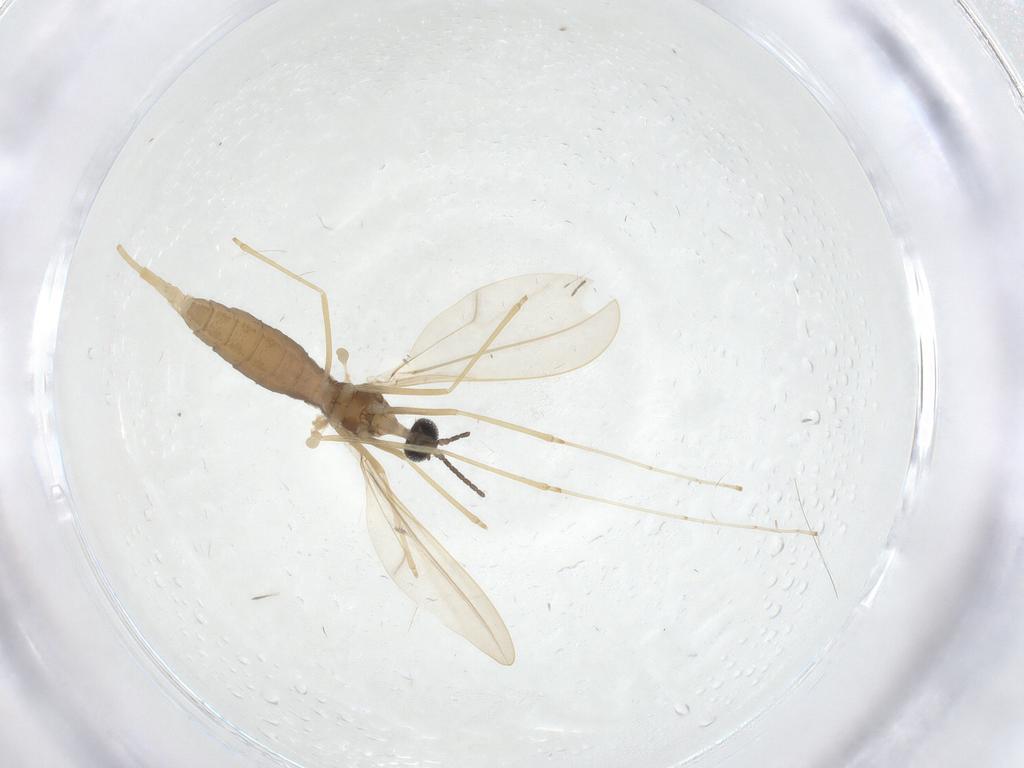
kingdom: Animalia
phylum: Arthropoda
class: Insecta
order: Diptera
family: Cecidomyiidae
